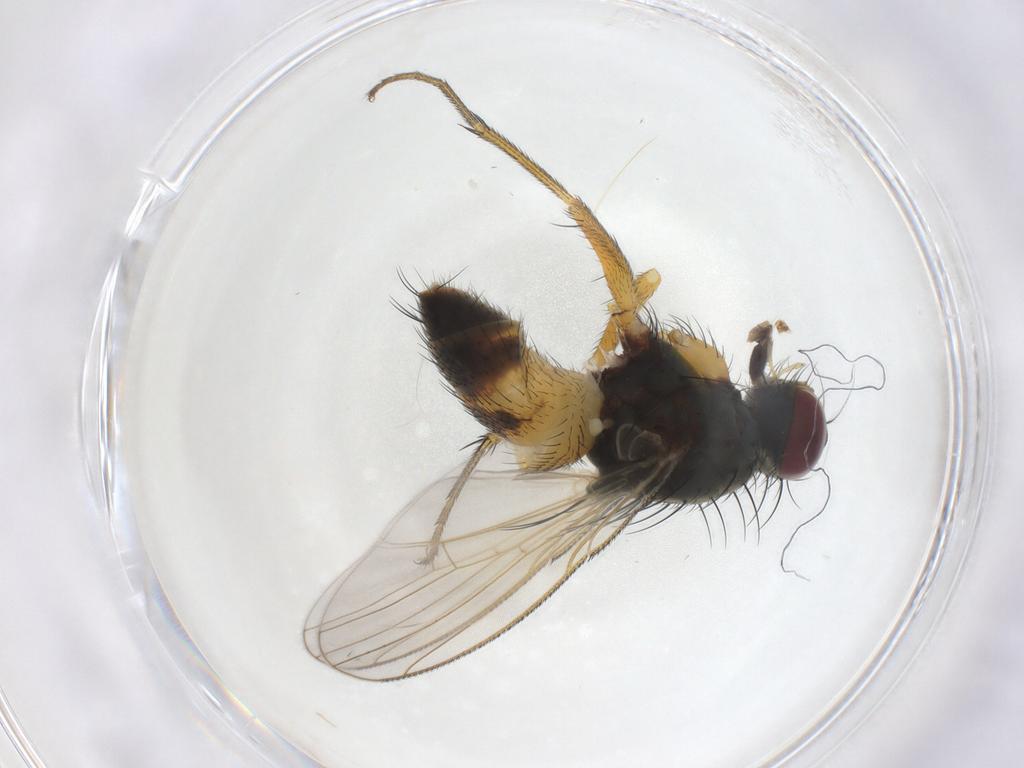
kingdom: Animalia
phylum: Arthropoda
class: Insecta
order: Diptera
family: Muscidae
